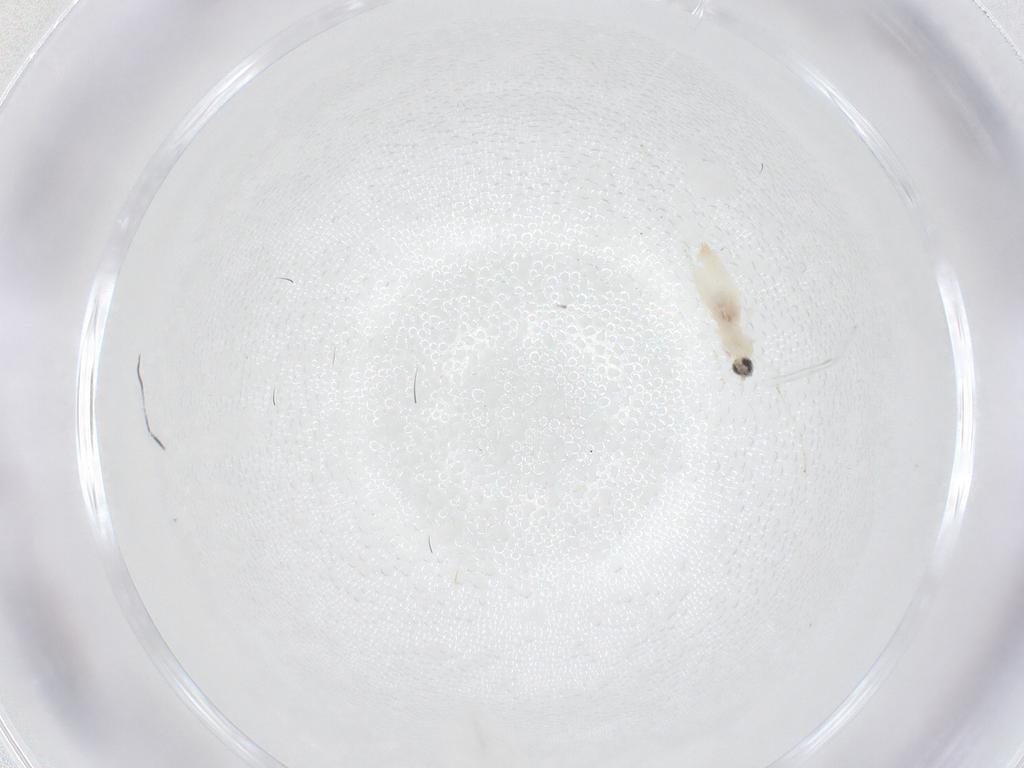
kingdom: Animalia
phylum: Arthropoda
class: Insecta
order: Diptera
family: Cecidomyiidae
